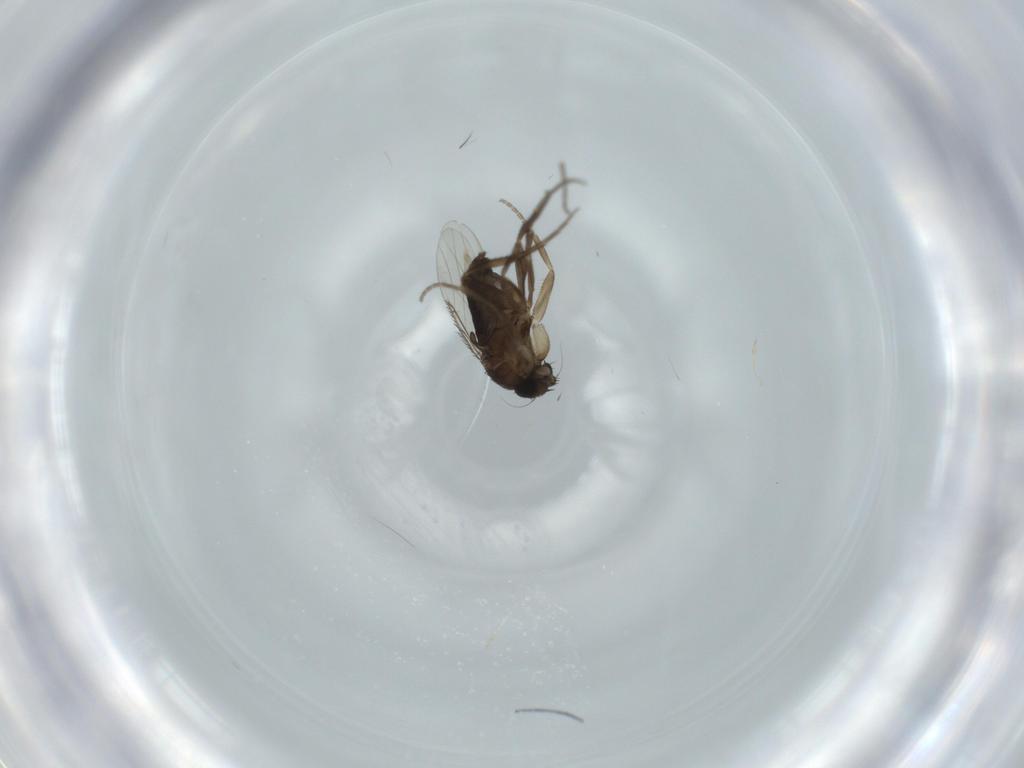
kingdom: Animalia
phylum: Arthropoda
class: Insecta
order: Diptera
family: Phoridae
